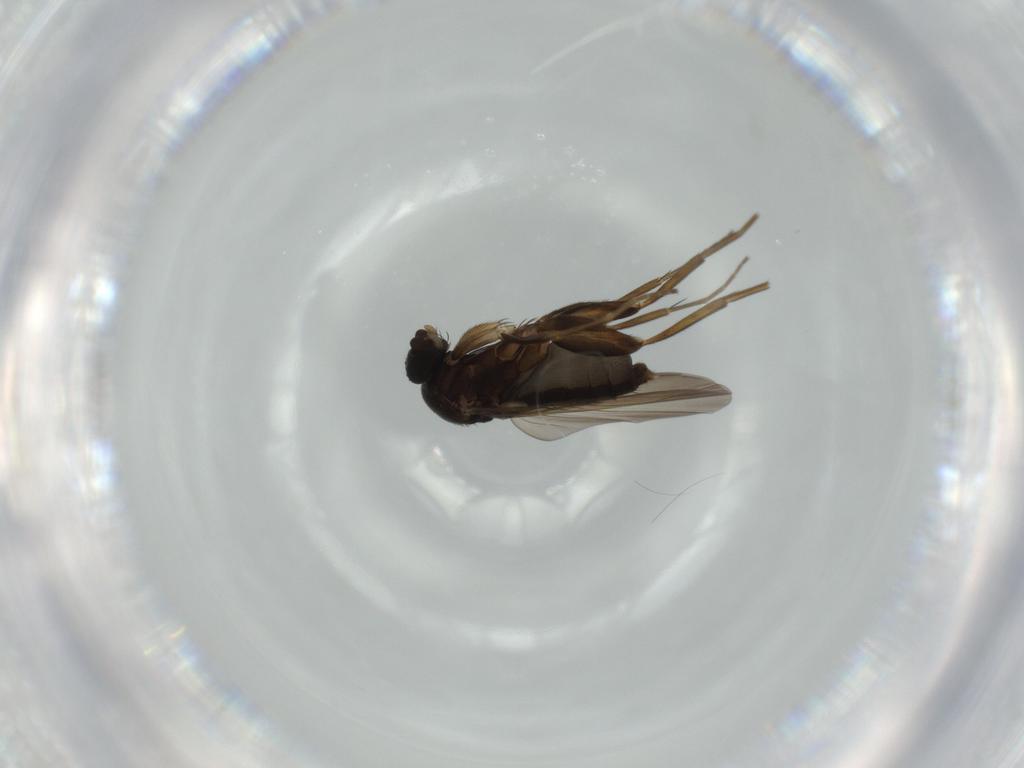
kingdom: Animalia
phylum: Arthropoda
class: Insecta
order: Diptera
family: Phoridae
